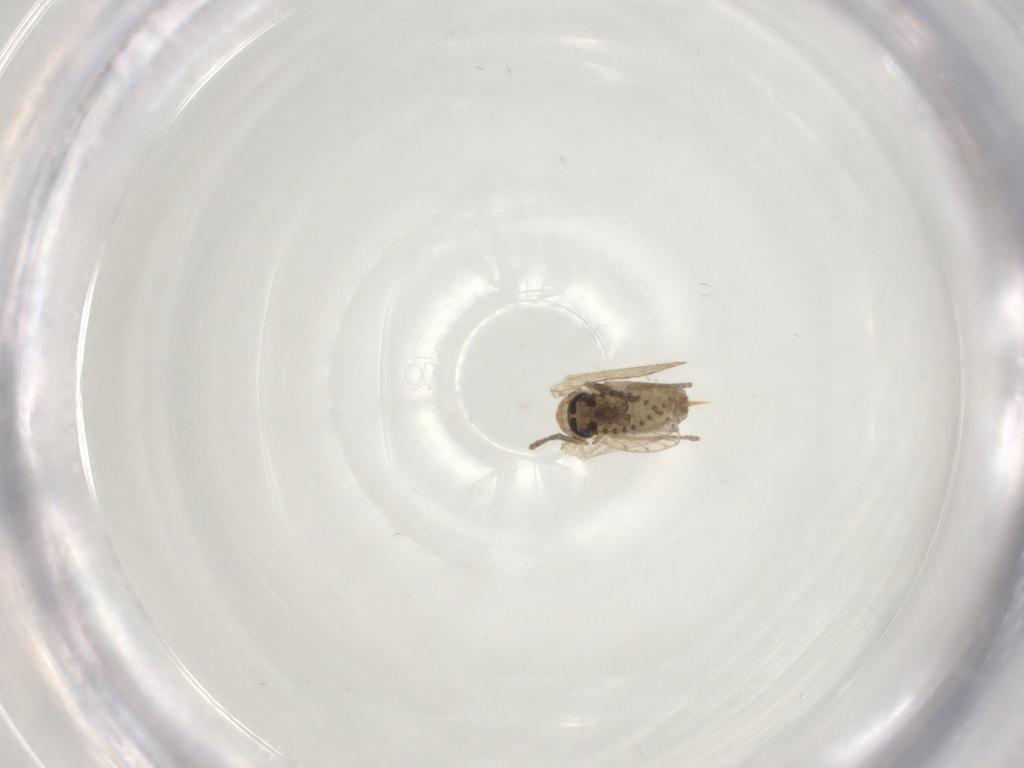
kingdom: Animalia
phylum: Arthropoda
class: Insecta
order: Diptera
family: Psychodidae
